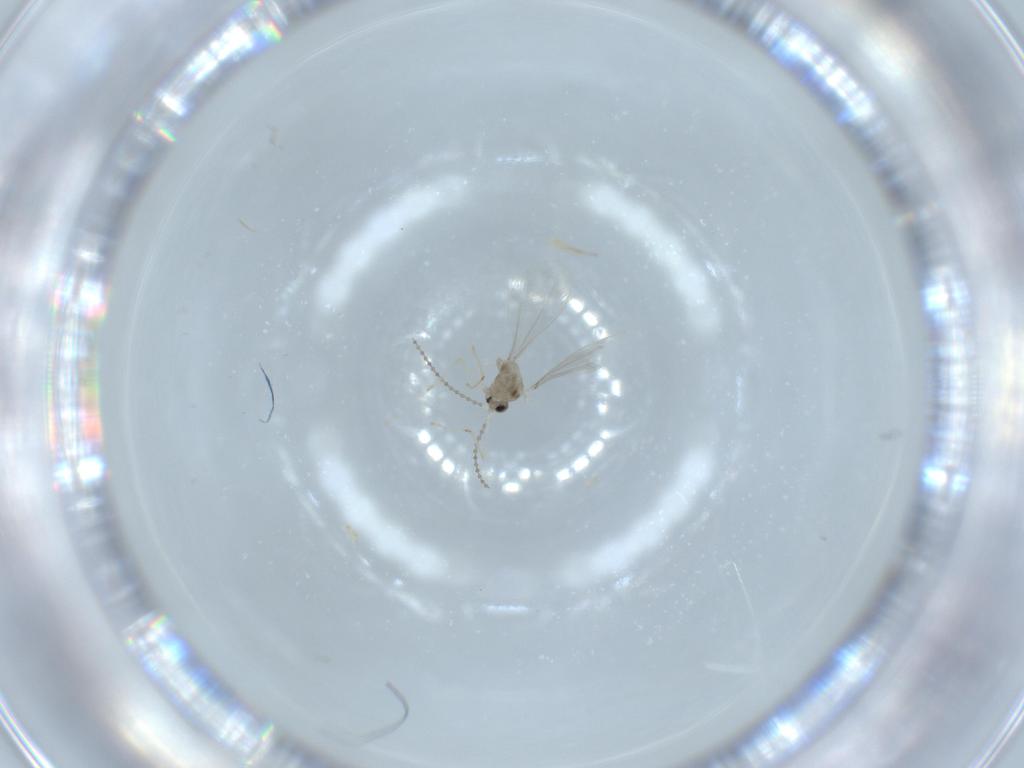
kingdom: Animalia
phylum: Arthropoda
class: Insecta
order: Diptera
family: Cecidomyiidae
